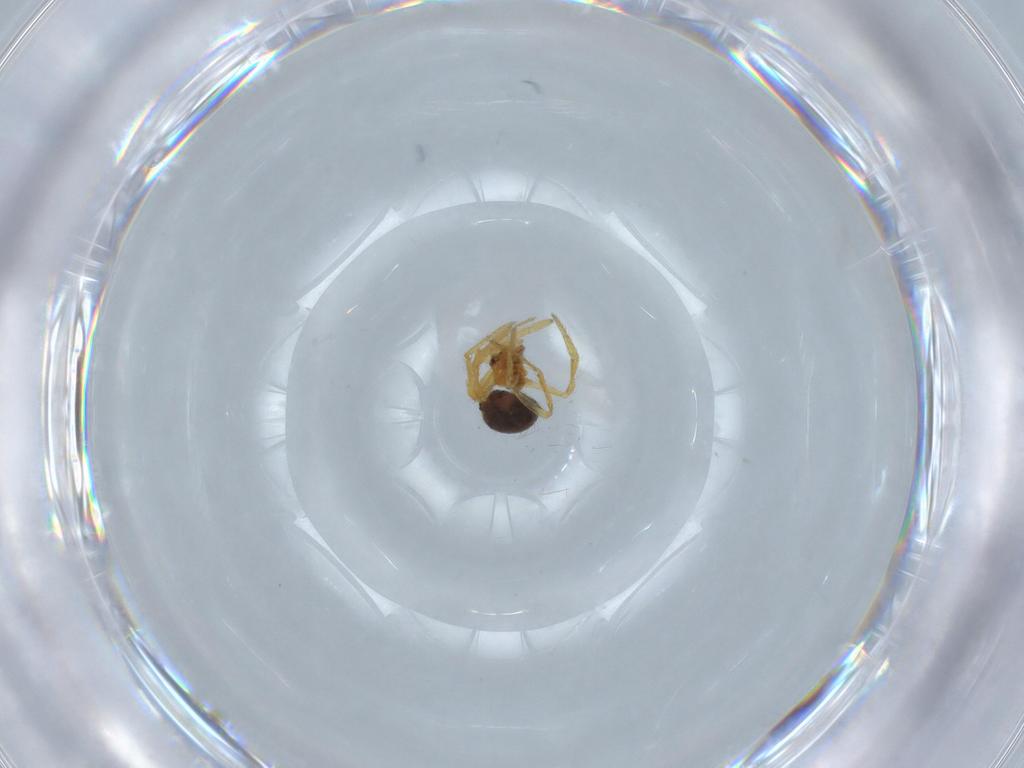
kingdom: Animalia
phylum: Arthropoda
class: Arachnida
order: Araneae
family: Theridiidae
